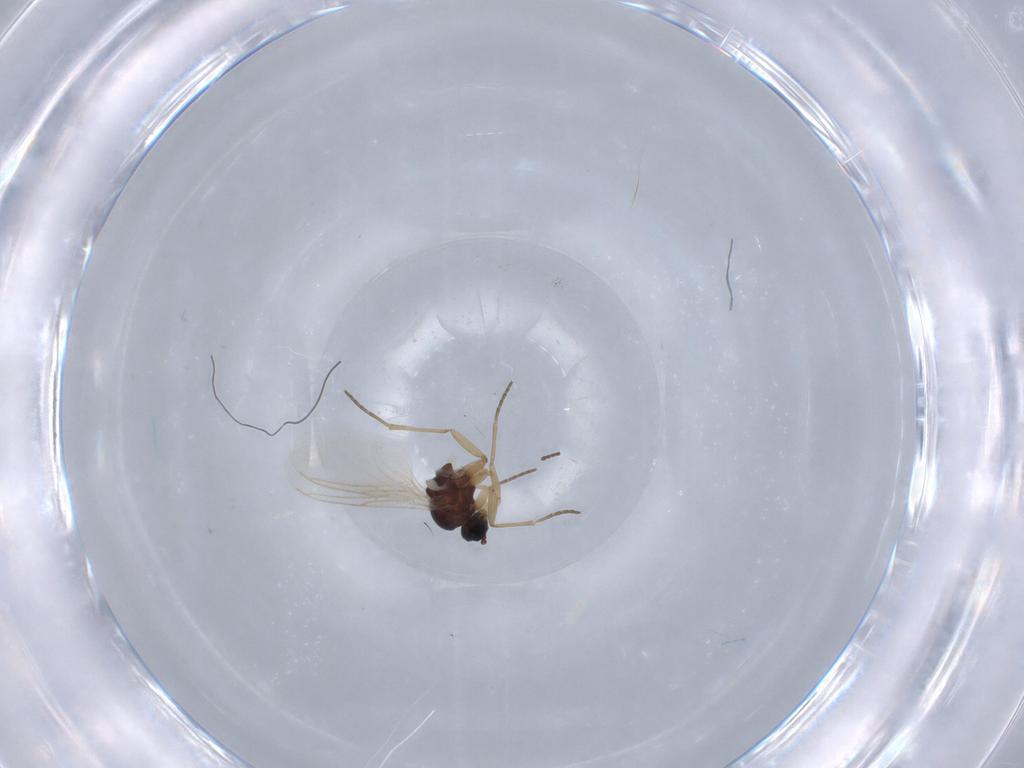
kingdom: Animalia
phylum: Arthropoda
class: Insecta
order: Diptera
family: Sciaridae
